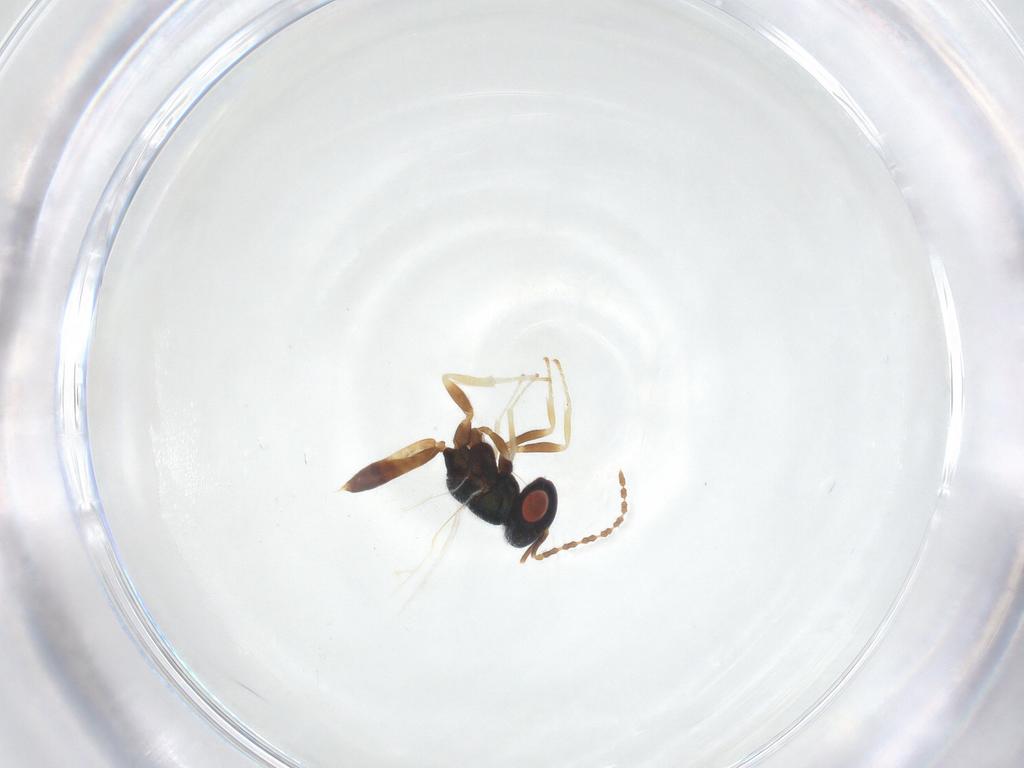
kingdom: Animalia
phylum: Arthropoda
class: Insecta
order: Hymenoptera
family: Pteromalidae
